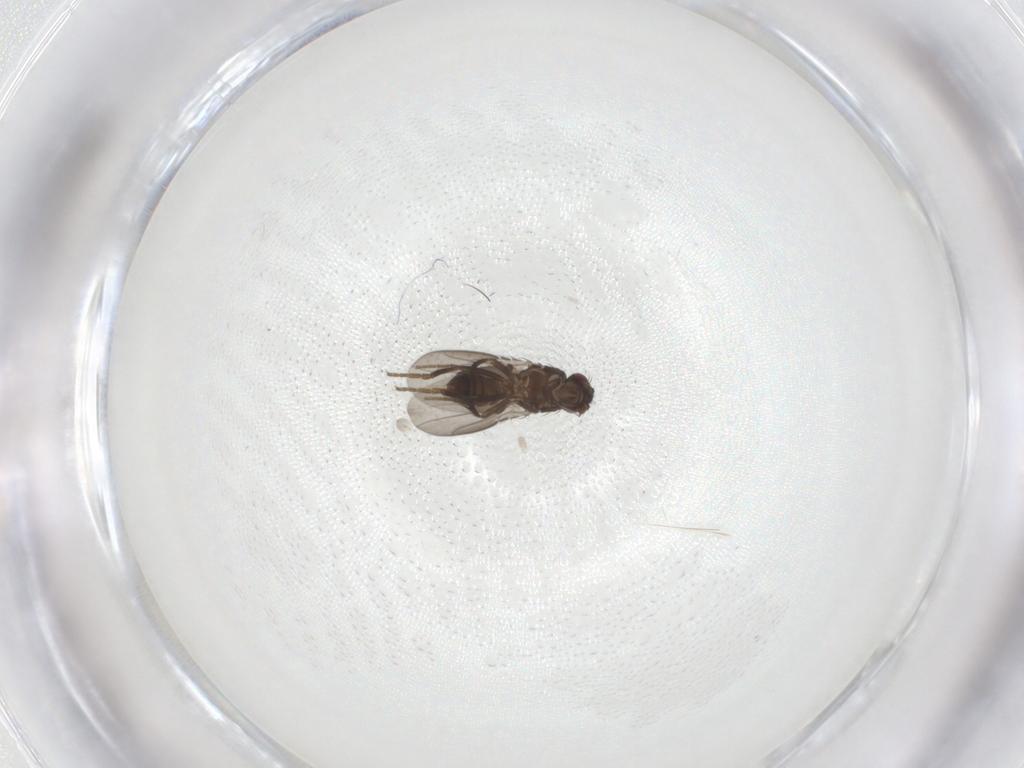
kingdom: Animalia
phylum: Arthropoda
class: Insecta
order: Diptera
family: Sphaeroceridae
